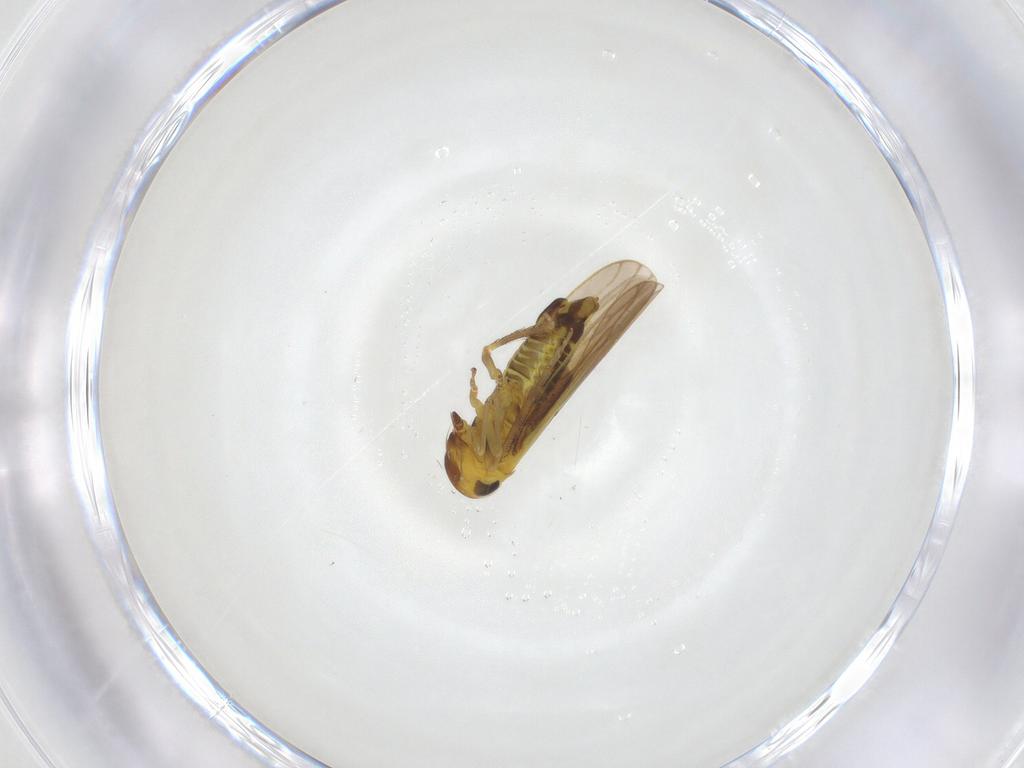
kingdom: Animalia
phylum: Arthropoda
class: Insecta
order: Hemiptera
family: Cicadellidae
